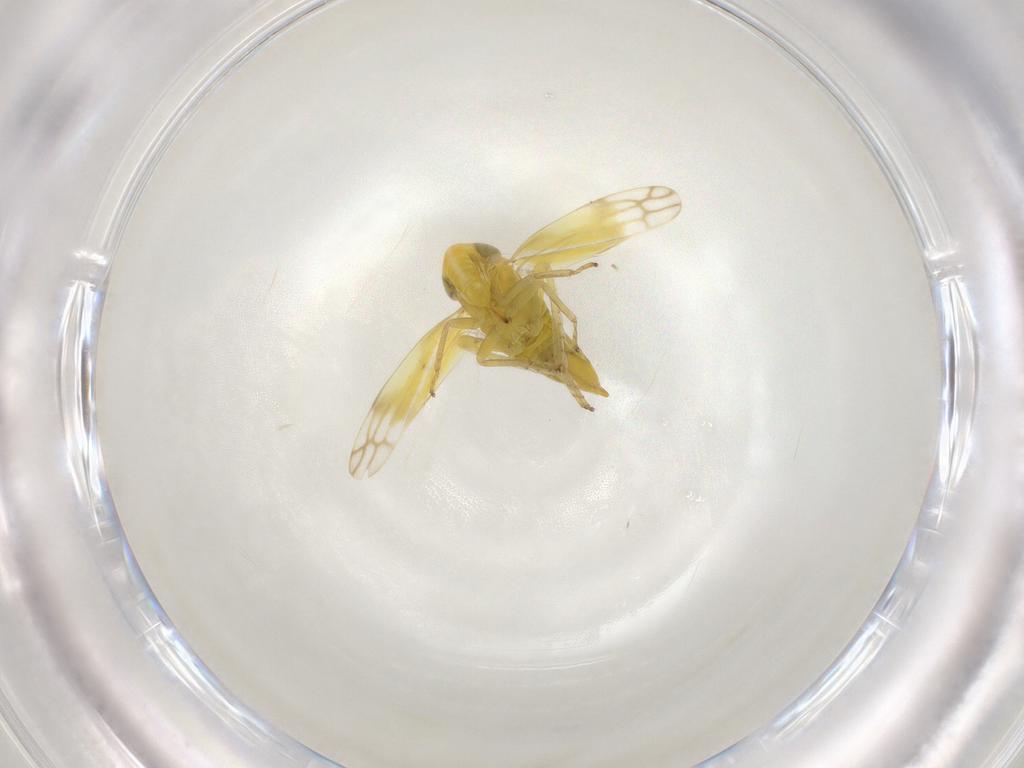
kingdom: Animalia
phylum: Arthropoda
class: Insecta
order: Hemiptera
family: Cicadellidae
